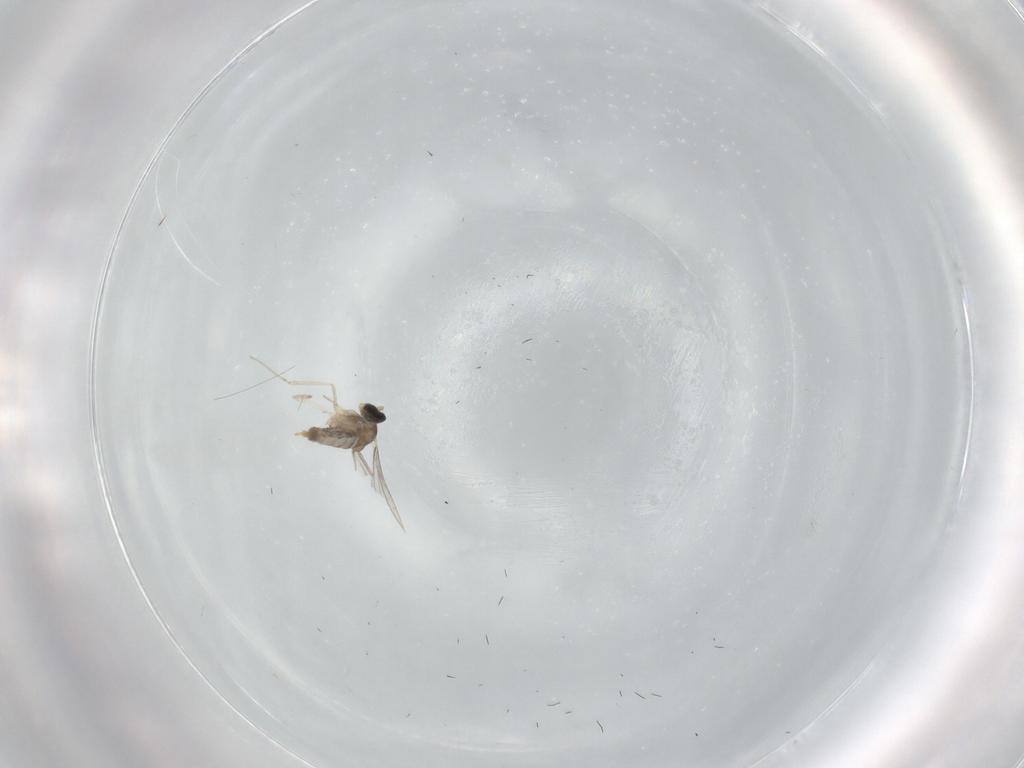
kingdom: Animalia
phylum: Arthropoda
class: Insecta
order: Diptera
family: Cecidomyiidae
